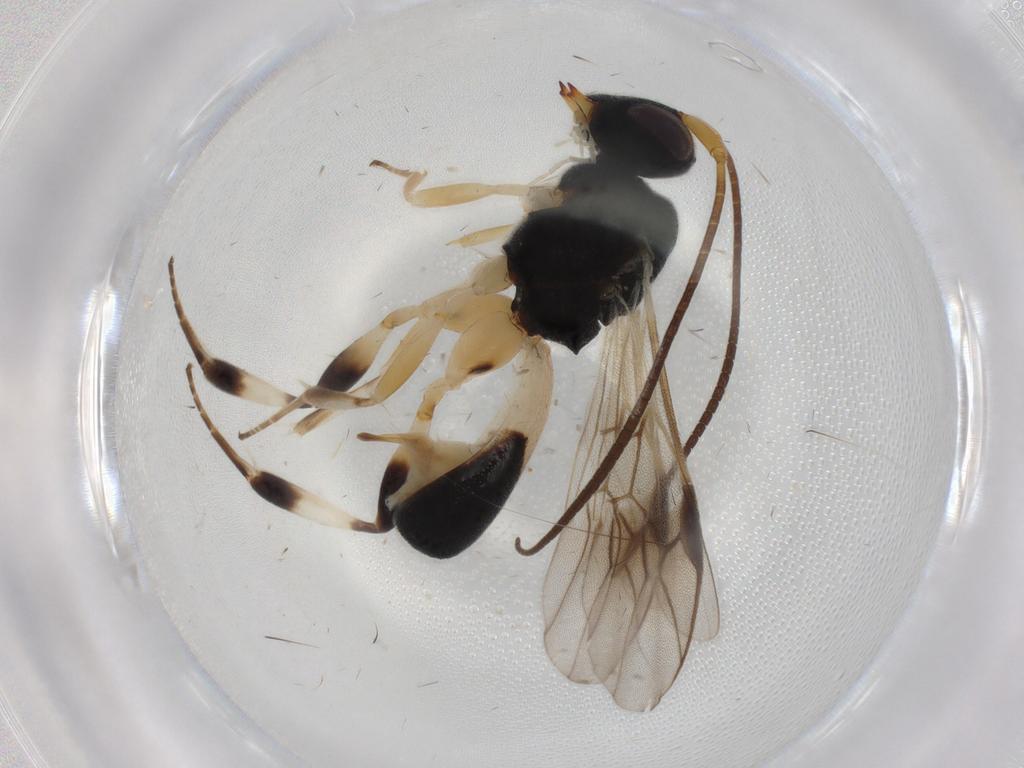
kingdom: Animalia
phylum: Arthropoda
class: Insecta
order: Hymenoptera
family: Braconidae
